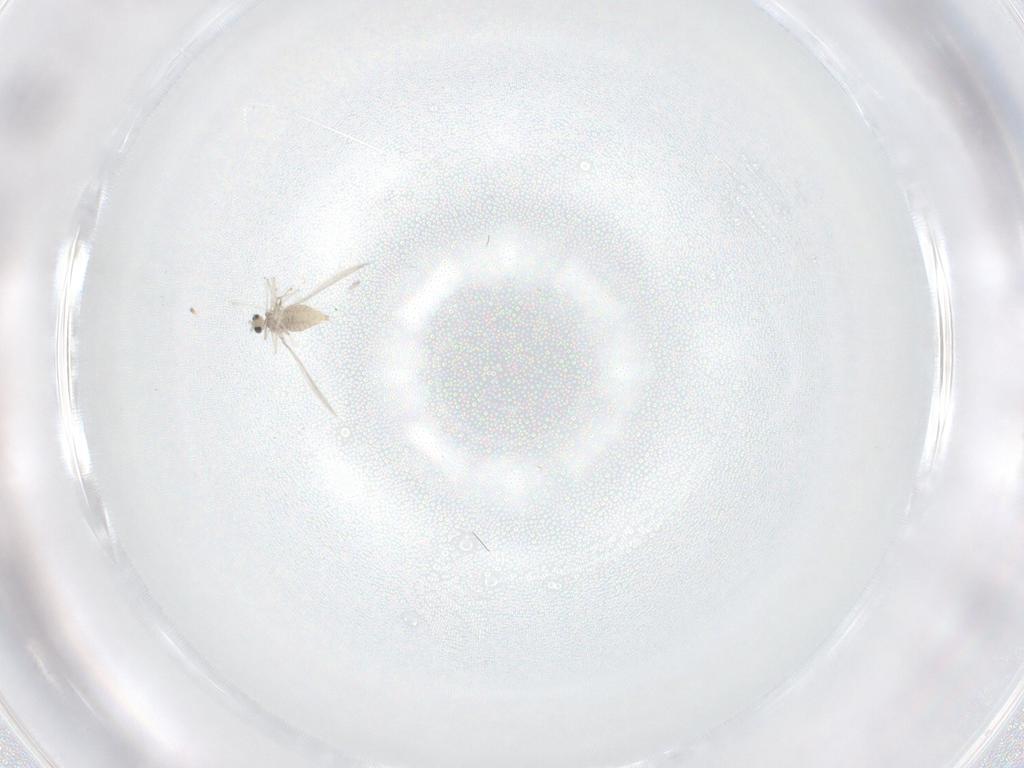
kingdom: Animalia
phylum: Arthropoda
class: Insecta
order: Diptera
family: Cecidomyiidae
